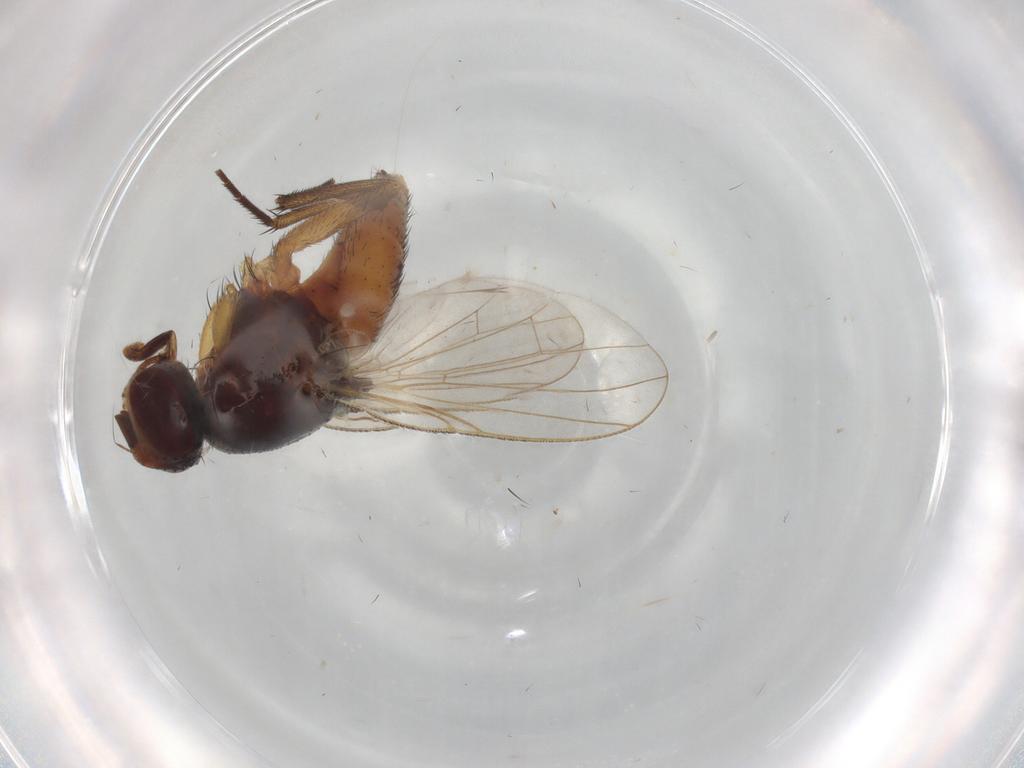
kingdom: Animalia
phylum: Arthropoda
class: Insecta
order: Diptera
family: Muscidae
